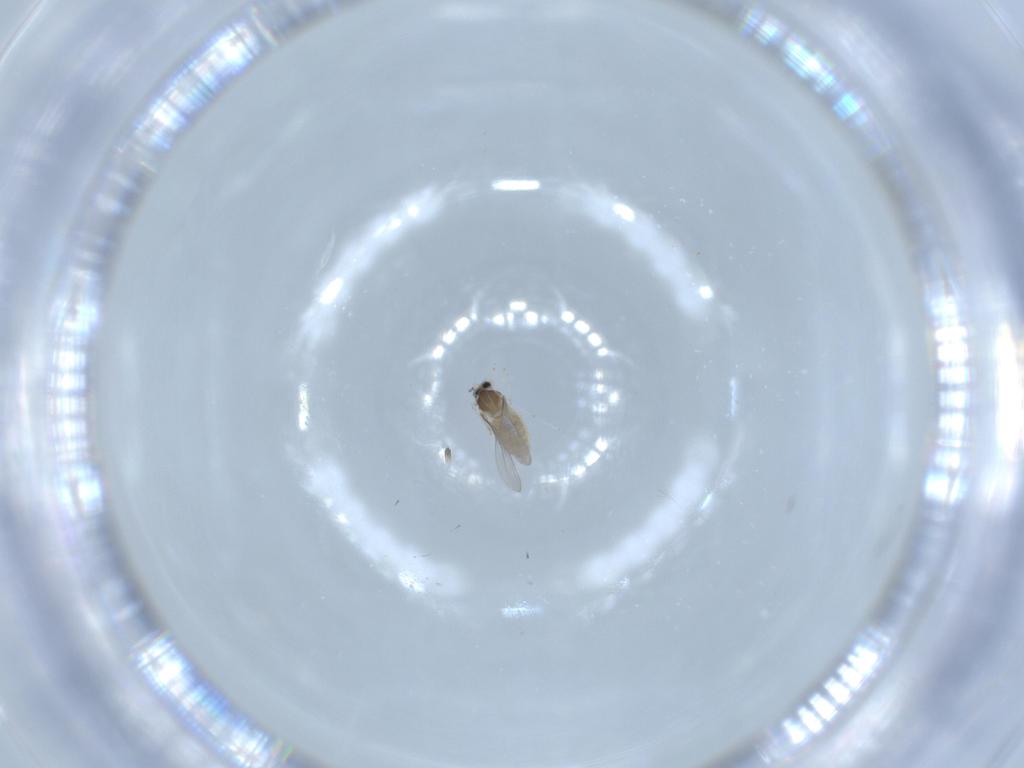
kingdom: Animalia
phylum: Arthropoda
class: Insecta
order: Diptera
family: Cecidomyiidae
